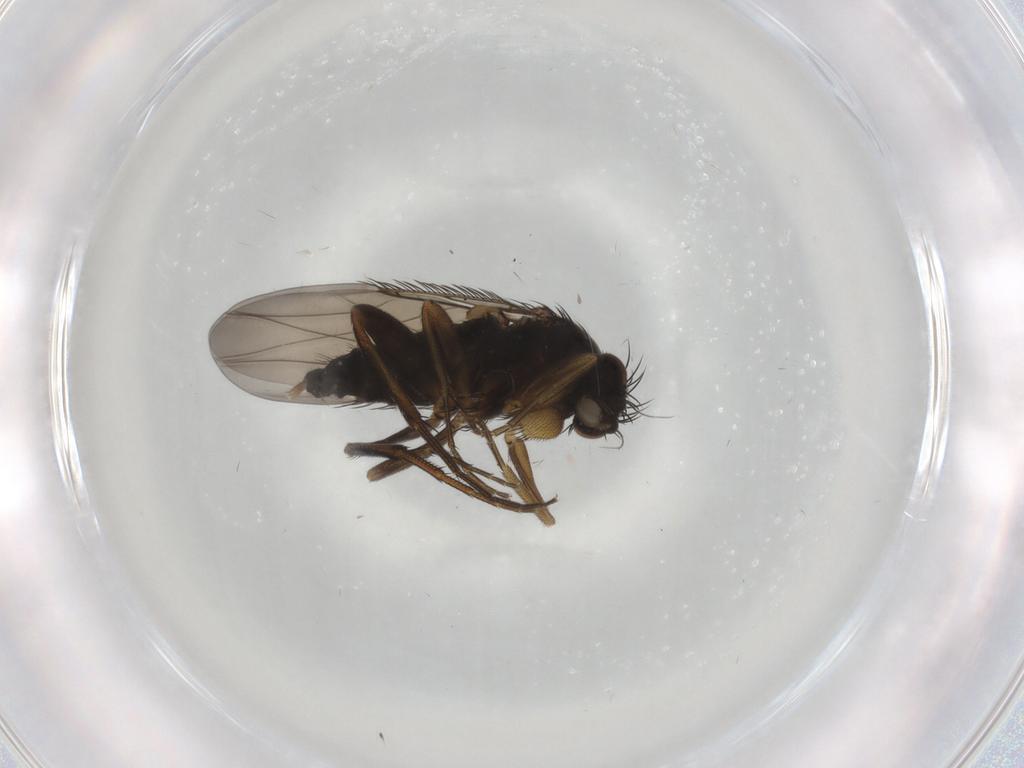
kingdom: Animalia
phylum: Arthropoda
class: Insecta
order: Diptera
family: Phoridae
